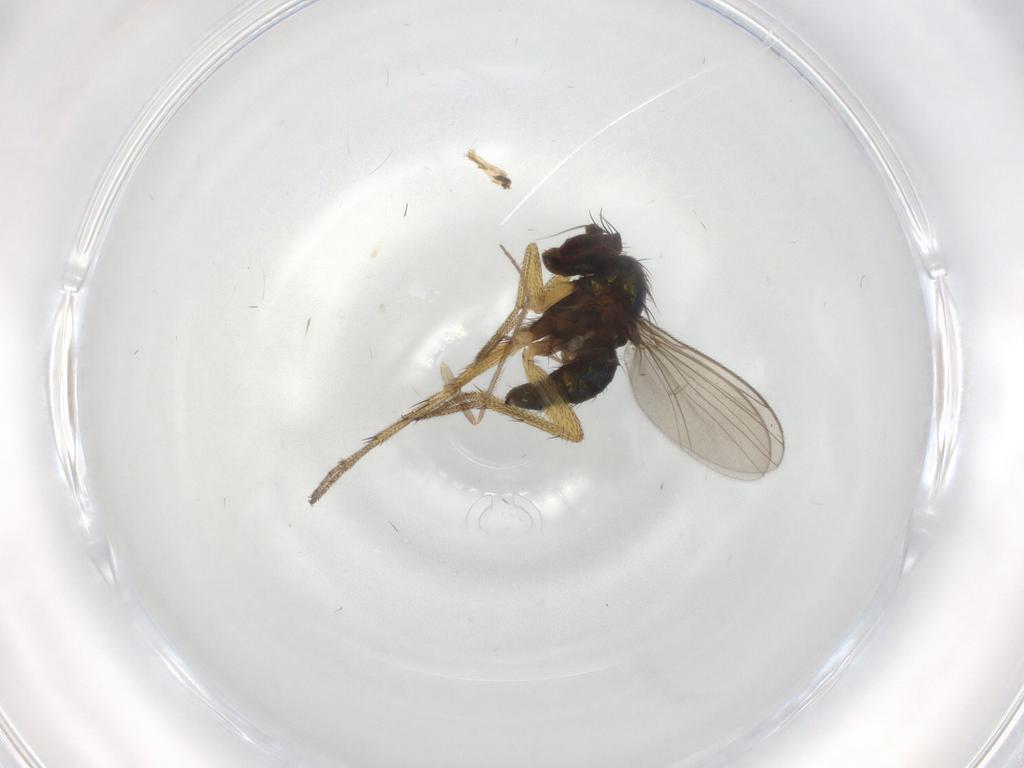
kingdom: Animalia
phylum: Arthropoda
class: Insecta
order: Diptera
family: Chironomidae
